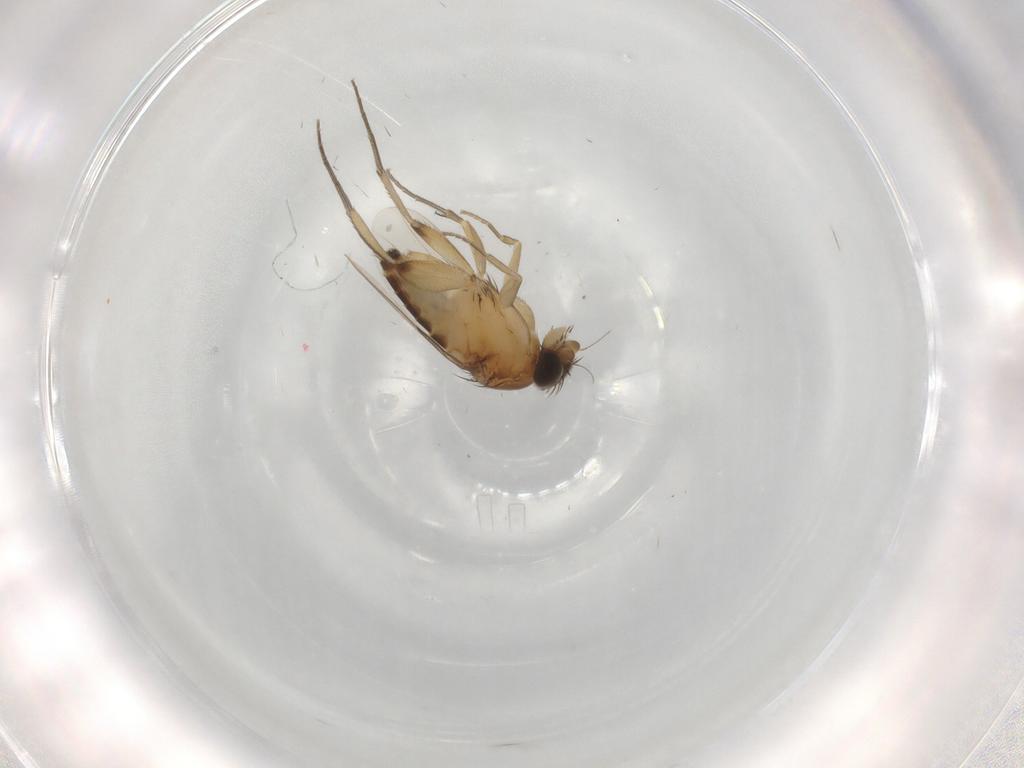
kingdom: Animalia
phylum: Arthropoda
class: Insecta
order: Diptera
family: Phoridae
